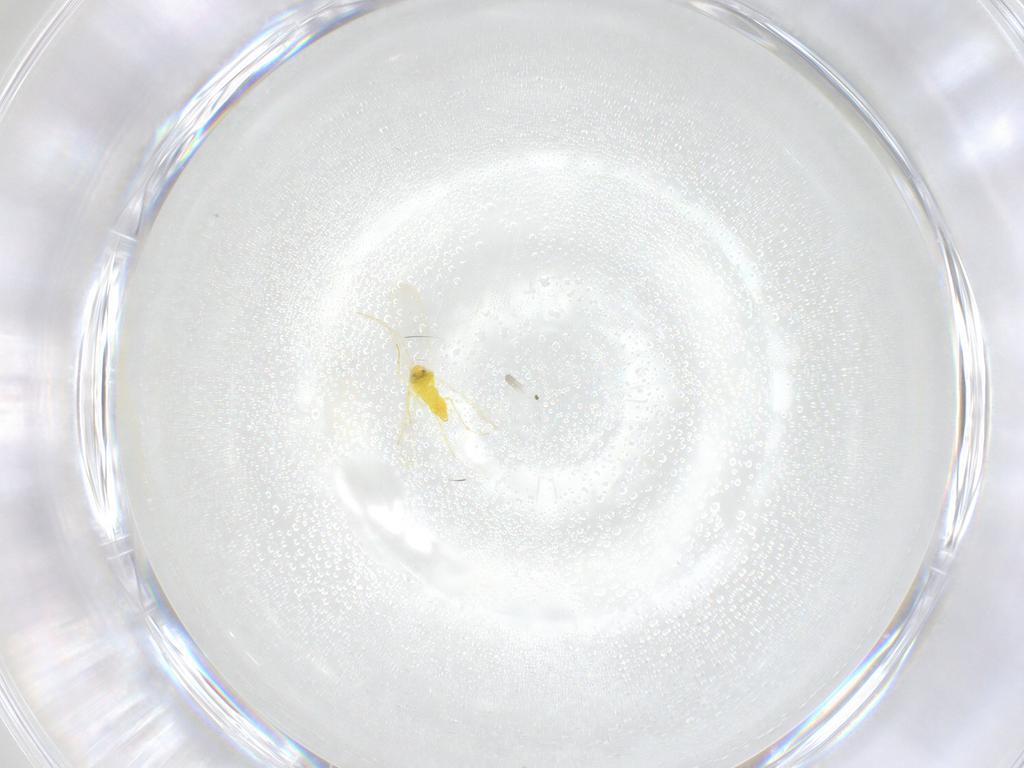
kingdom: Animalia
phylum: Arthropoda
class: Insecta
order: Hemiptera
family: Aleyrodidae
